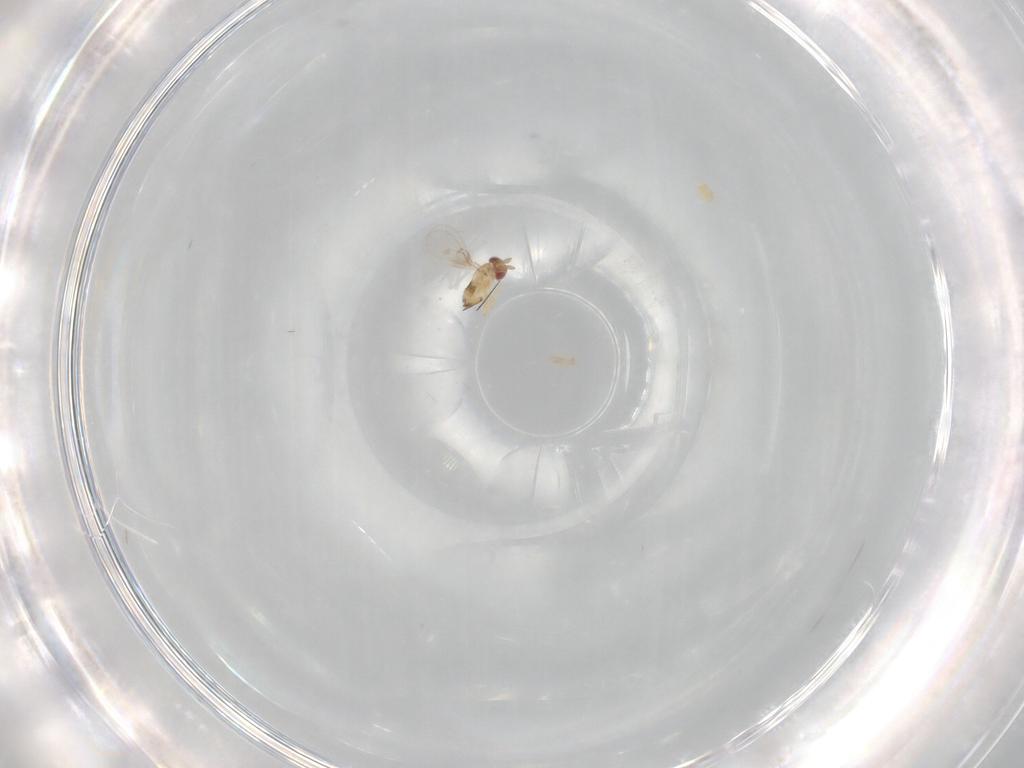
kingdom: Animalia
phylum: Arthropoda
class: Insecta
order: Hymenoptera
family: Trichogrammatidae
